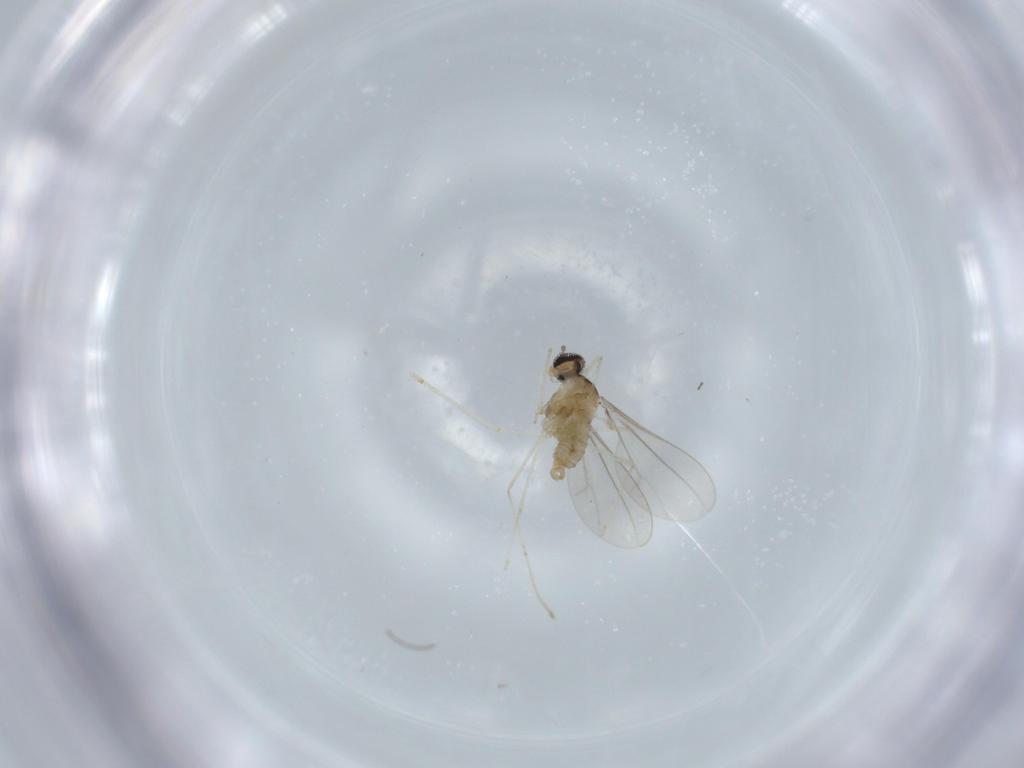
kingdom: Animalia
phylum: Arthropoda
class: Insecta
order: Diptera
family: Cecidomyiidae
